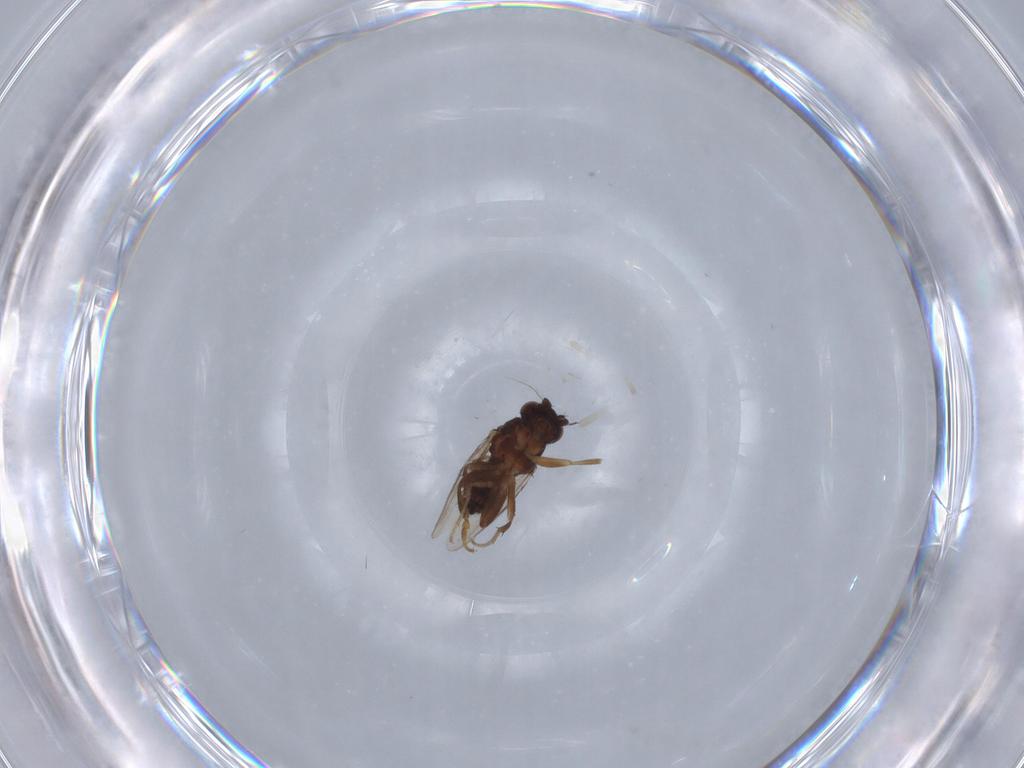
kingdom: Animalia
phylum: Arthropoda
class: Insecta
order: Diptera
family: Sphaeroceridae
